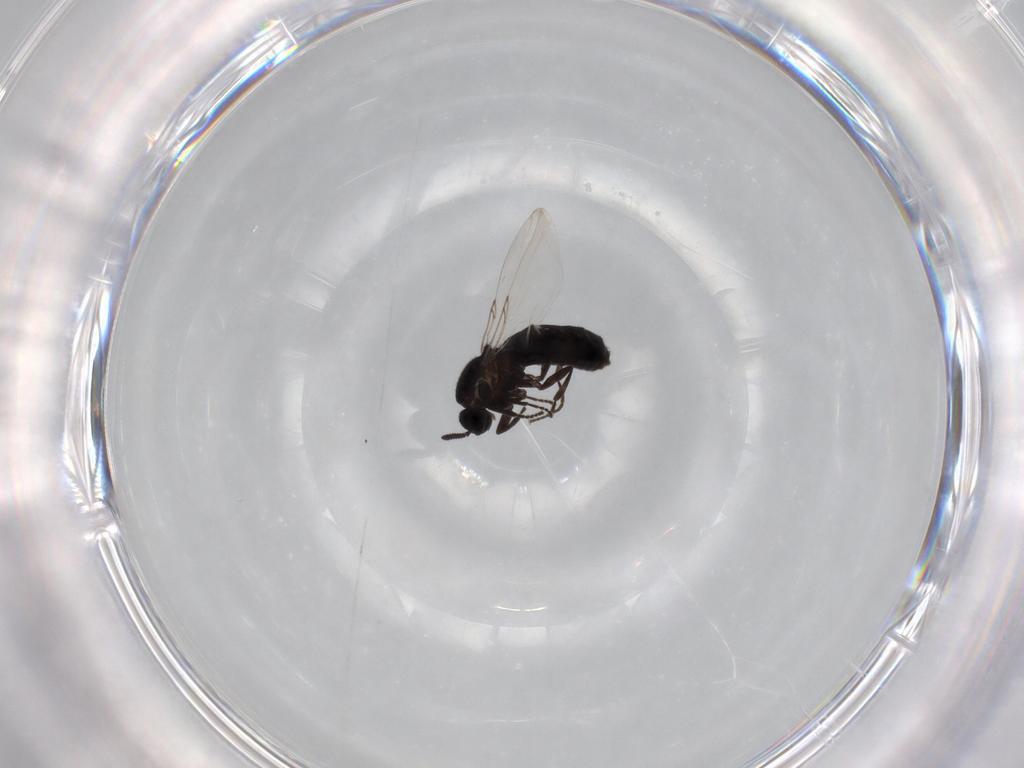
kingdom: Animalia
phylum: Arthropoda
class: Insecta
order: Diptera
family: Scatopsidae
